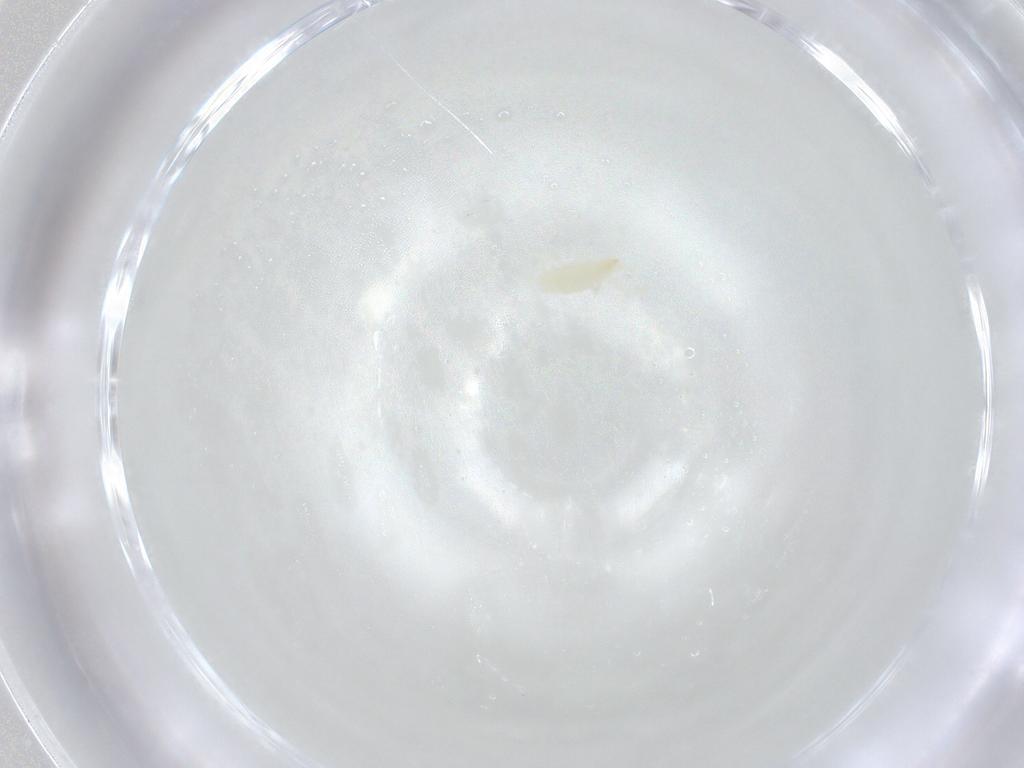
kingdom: Animalia
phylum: Arthropoda
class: Arachnida
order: Trombidiformes
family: Erythraeidae
